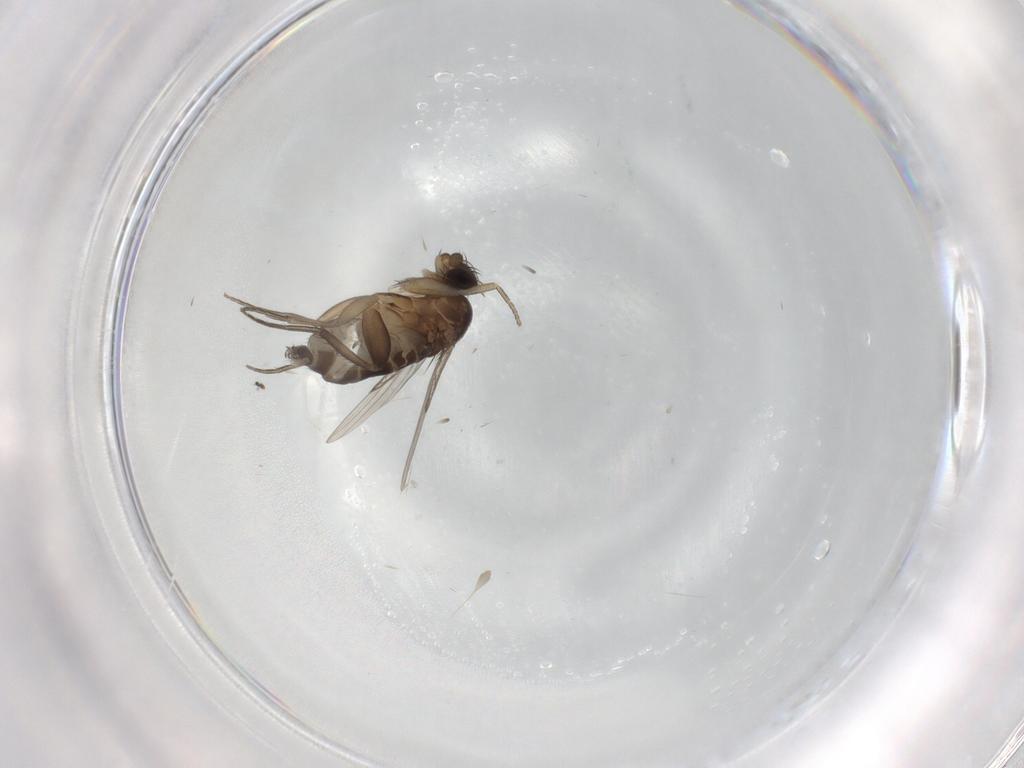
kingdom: Animalia
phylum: Arthropoda
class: Insecta
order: Diptera
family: Phoridae
